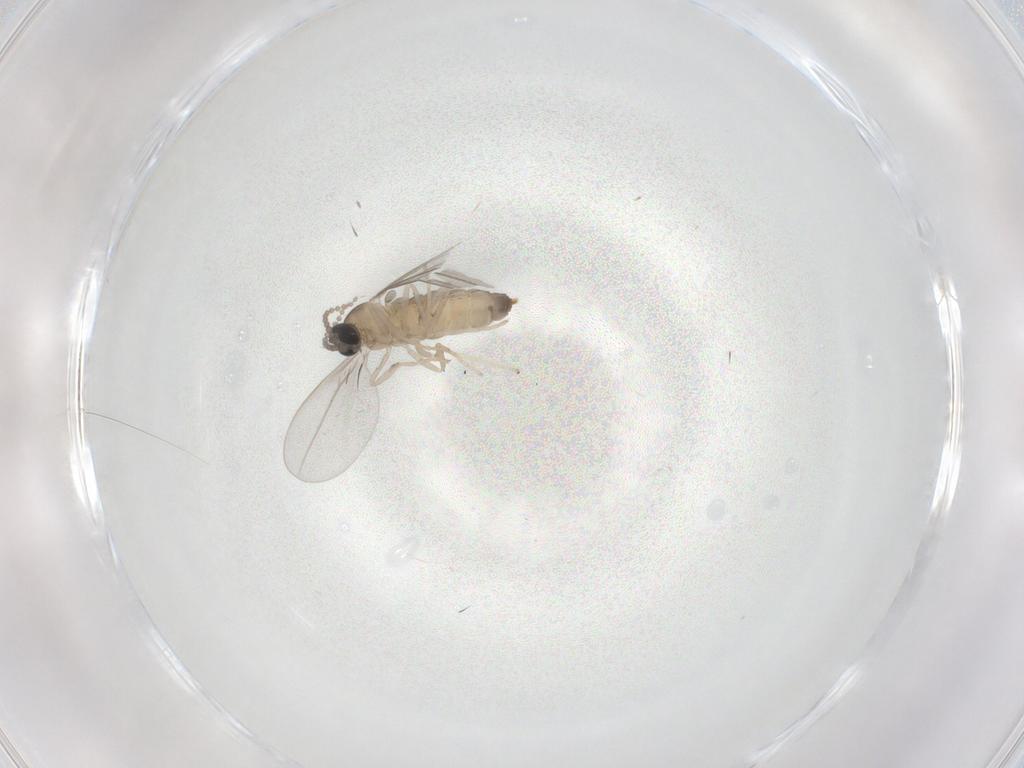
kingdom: Animalia
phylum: Arthropoda
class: Insecta
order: Diptera
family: Cecidomyiidae
